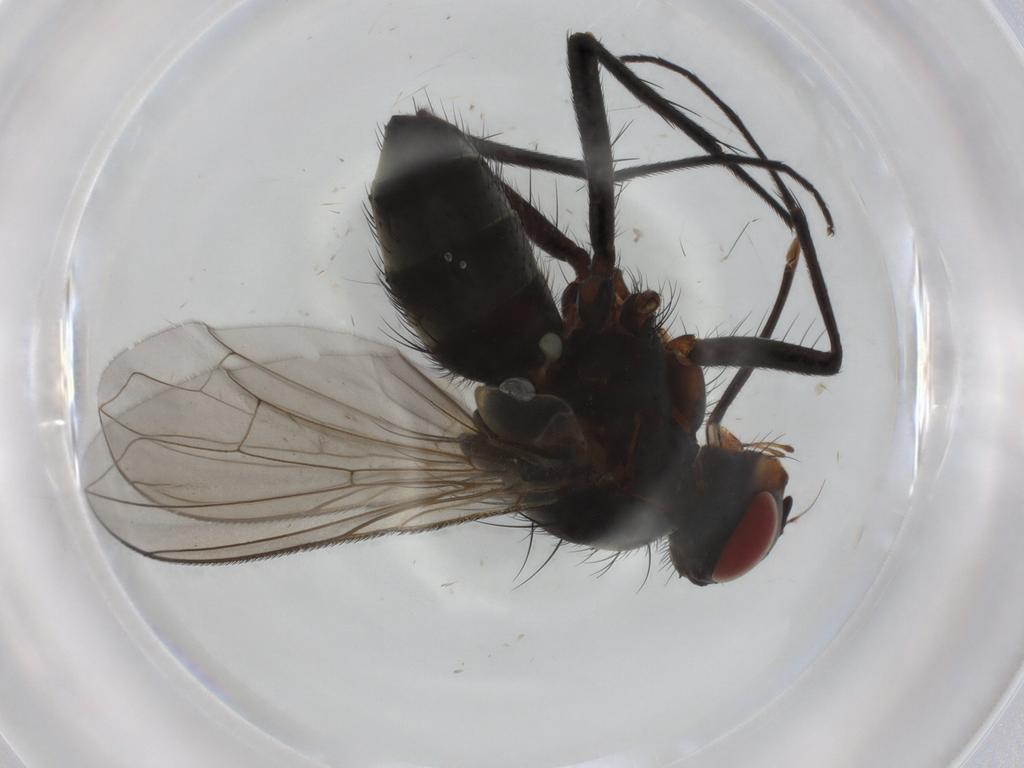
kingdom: Animalia
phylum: Arthropoda
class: Insecta
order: Diptera
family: Tachinidae
